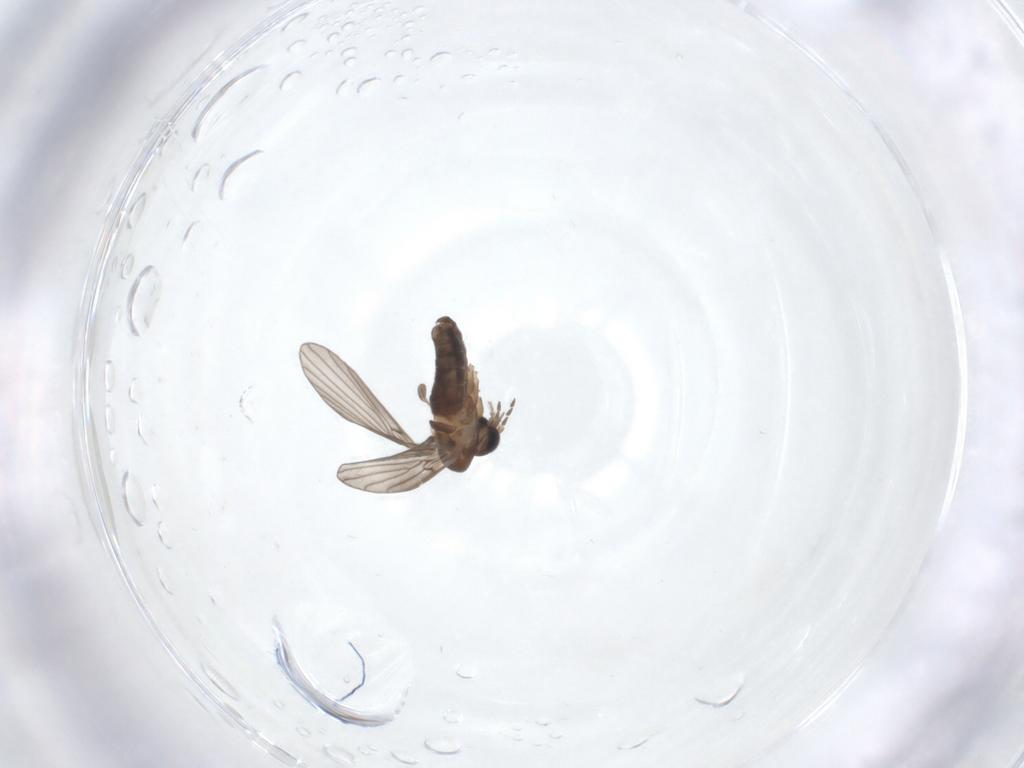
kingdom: Animalia
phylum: Arthropoda
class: Insecta
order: Diptera
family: Psychodidae
